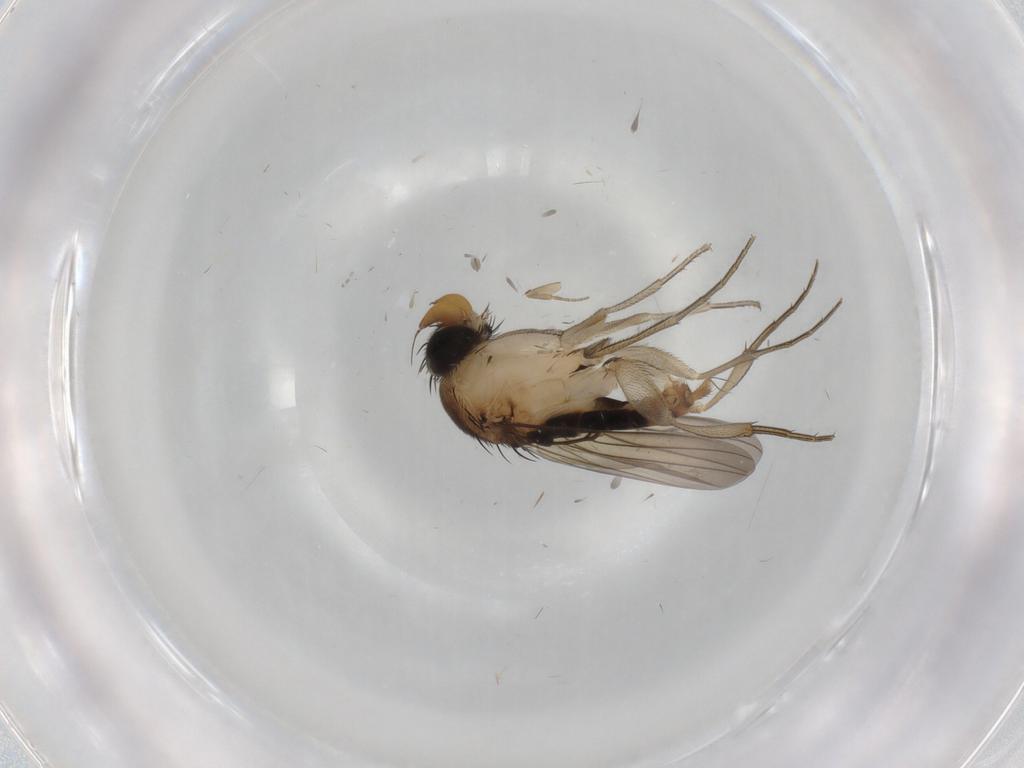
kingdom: Animalia
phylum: Arthropoda
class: Insecta
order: Diptera
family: Phoridae
